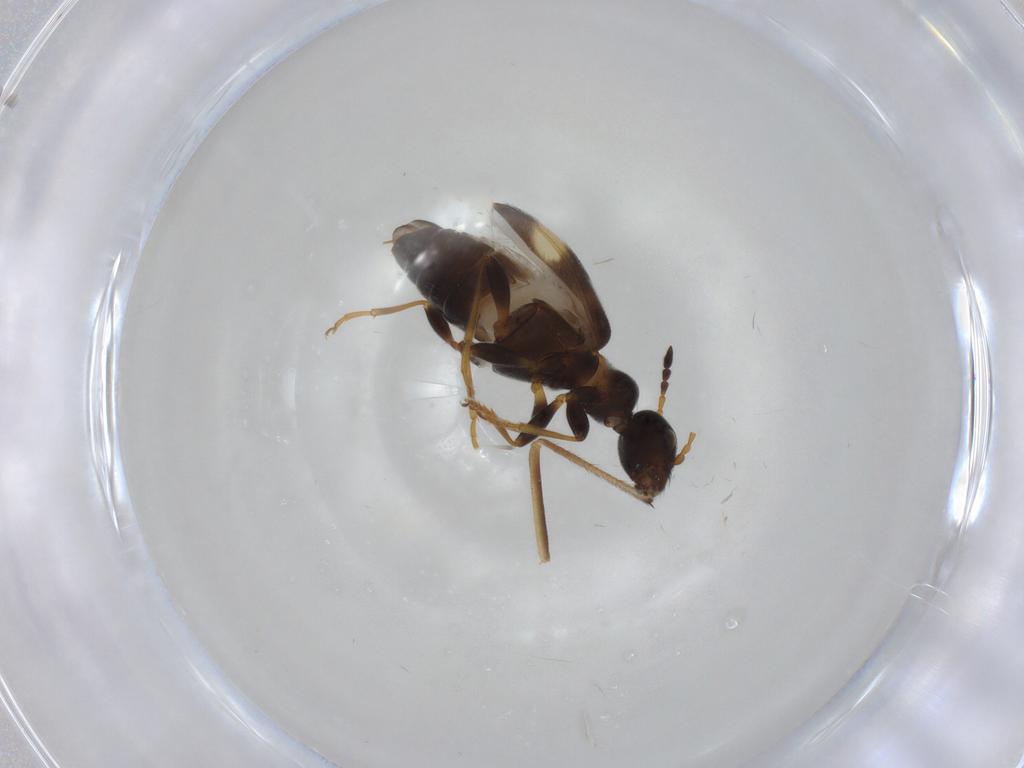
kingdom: Animalia
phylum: Arthropoda
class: Insecta
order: Coleoptera
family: Anthicidae
